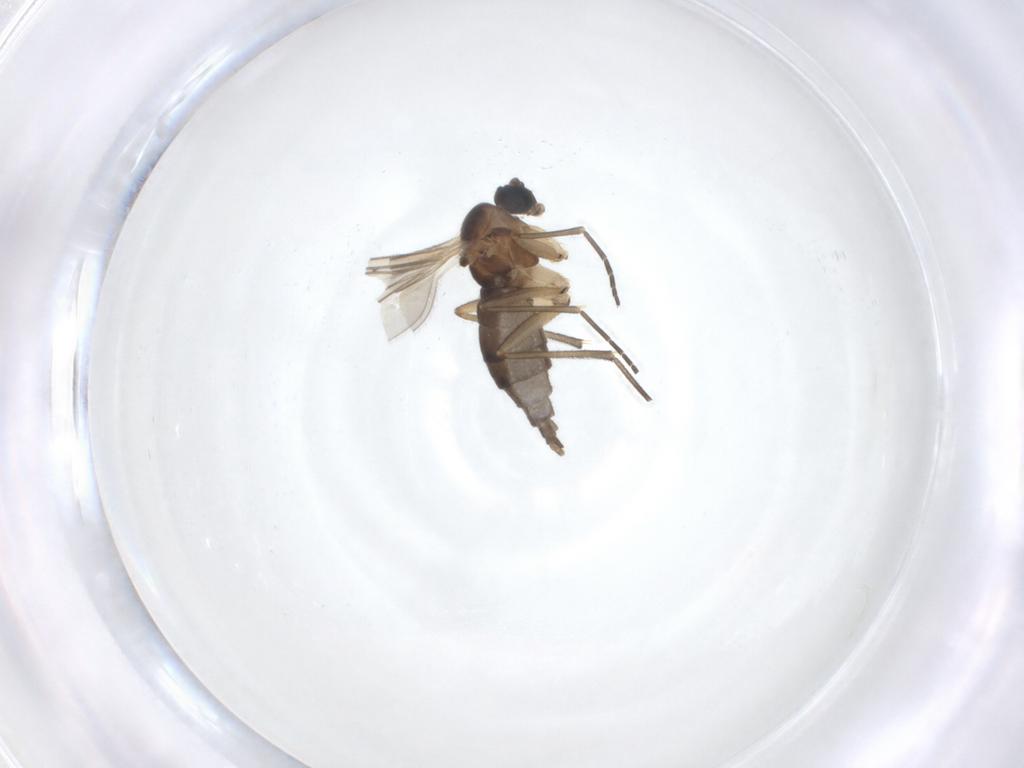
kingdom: Animalia
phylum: Arthropoda
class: Insecta
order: Diptera
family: Sciaridae
